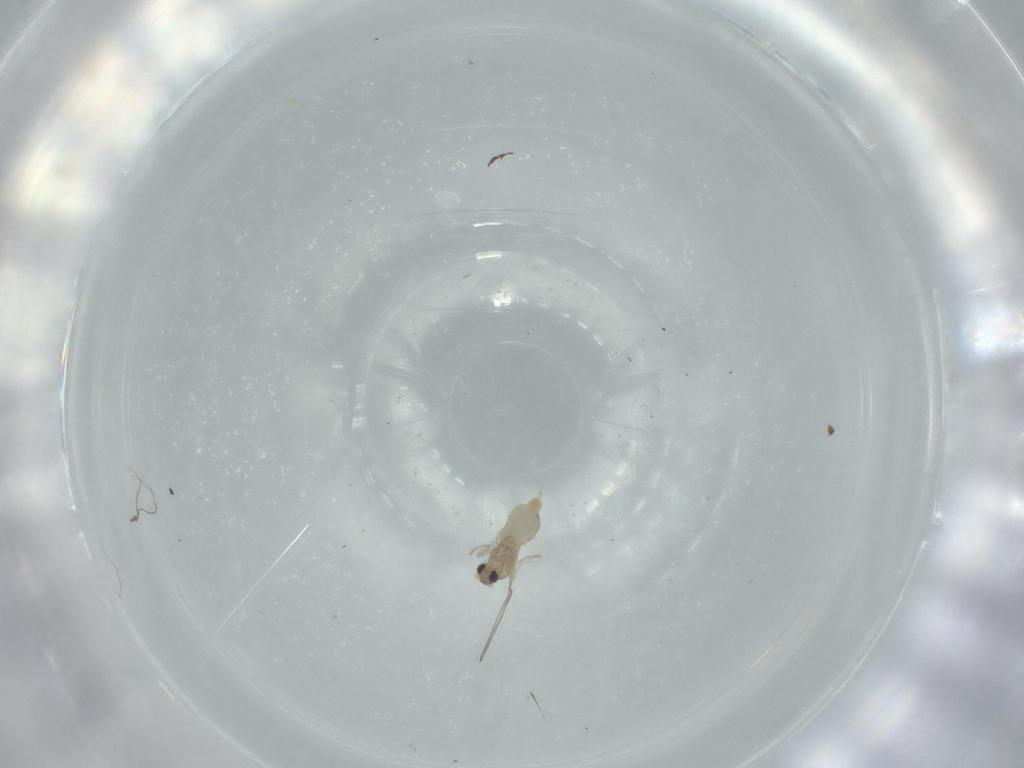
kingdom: Animalia
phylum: Arthropoda
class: Insecta
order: Diptera
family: Cecidomyiidae
